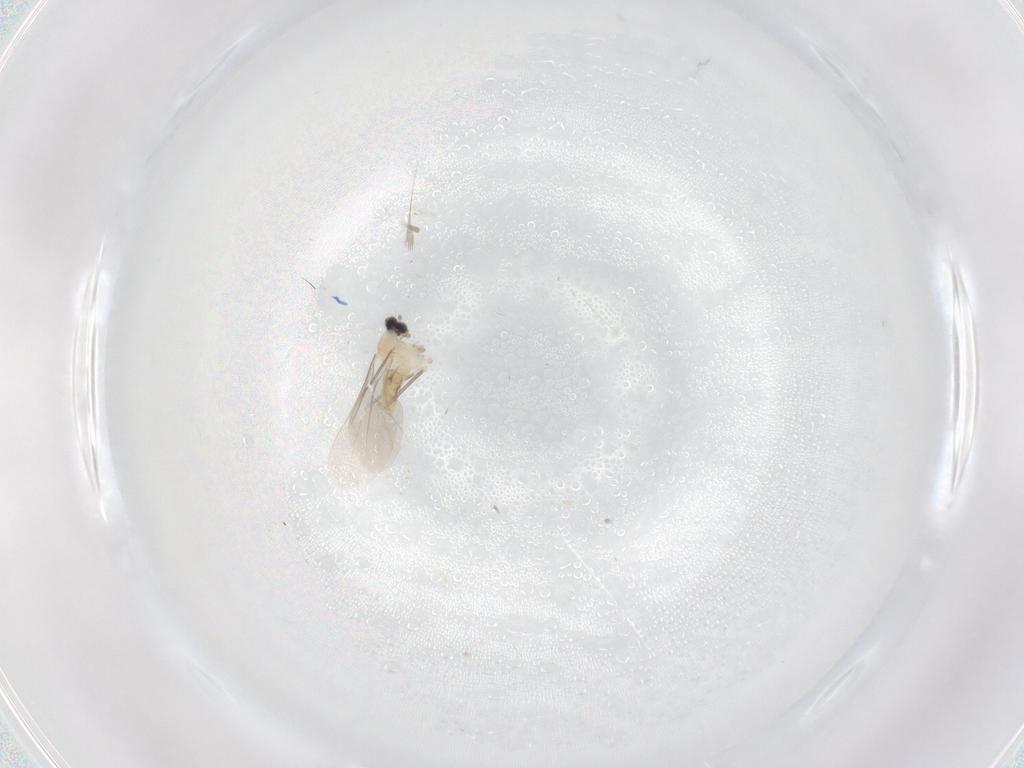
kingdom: Animalia
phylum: Arthropoda
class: Insecta
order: Diptera
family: Cecidomyiidae
